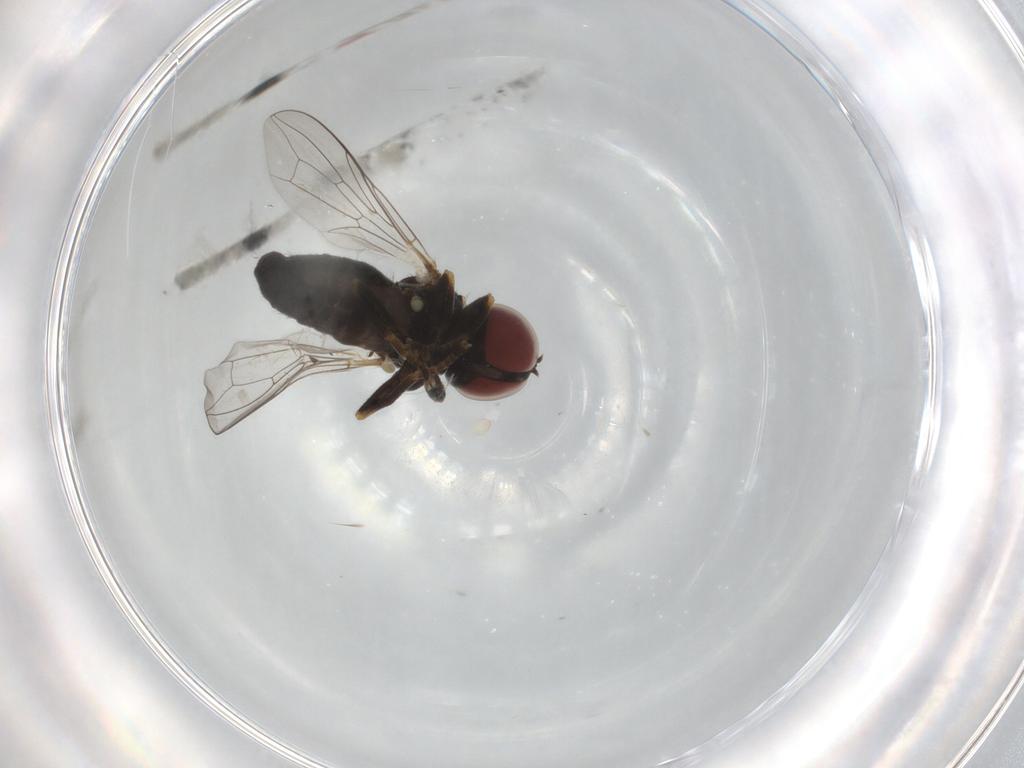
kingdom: Animalia
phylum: Arthropoda
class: Insecta
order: Diptera
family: Pipunculidae
